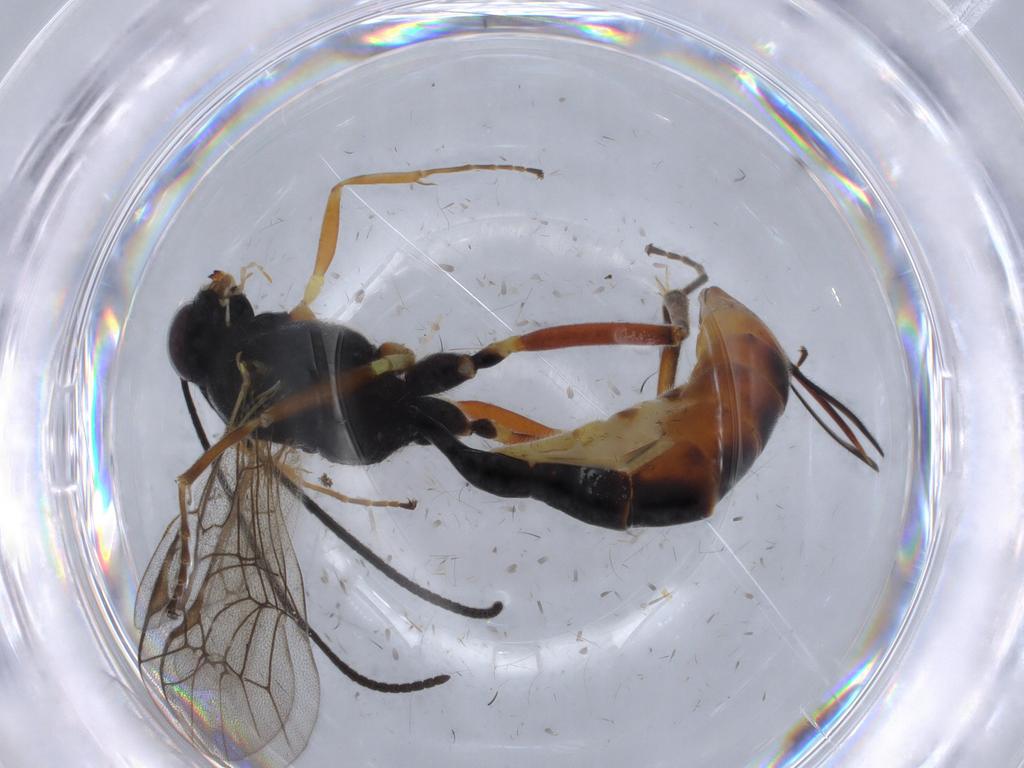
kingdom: Animalia
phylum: Arthropoda
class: Insecta
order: Hymenoptera
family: Ichneumonidae
